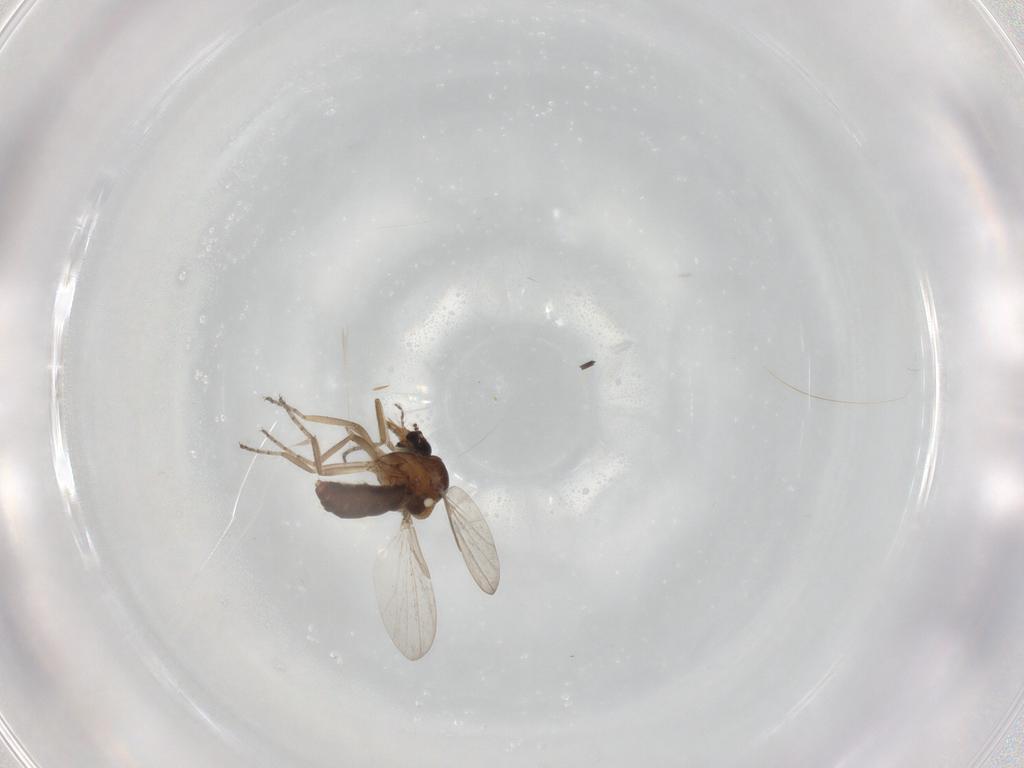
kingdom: Animalia
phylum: Arthropoda
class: Insecta
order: Diptera
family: Ceratopogonidae
